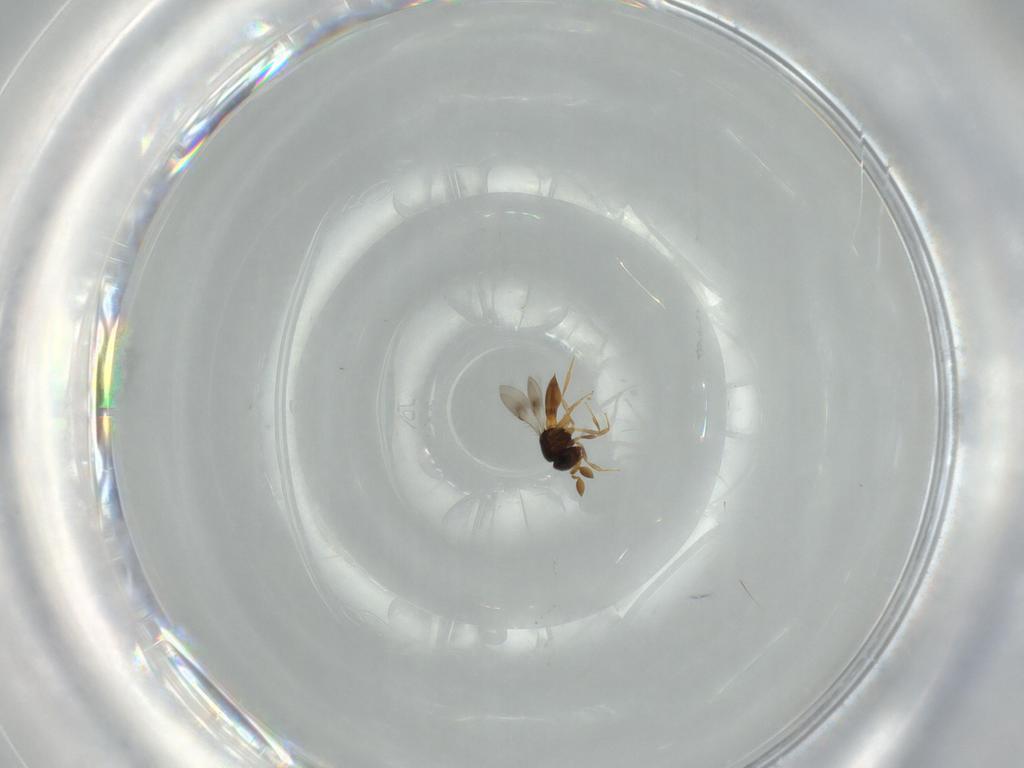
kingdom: Animalia
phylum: Arthropoda
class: Insecta
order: Hymenoptera
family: Scelionidae
